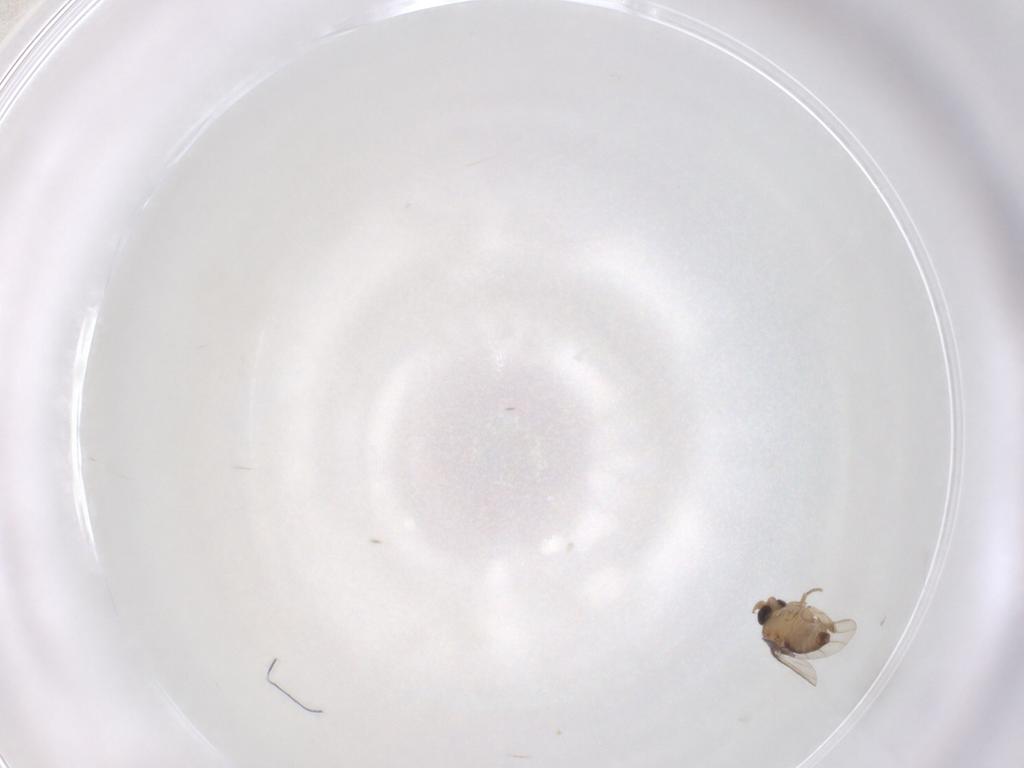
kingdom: Animalia
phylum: Arthropoda
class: Insecta
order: Diptera
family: Phoridae
